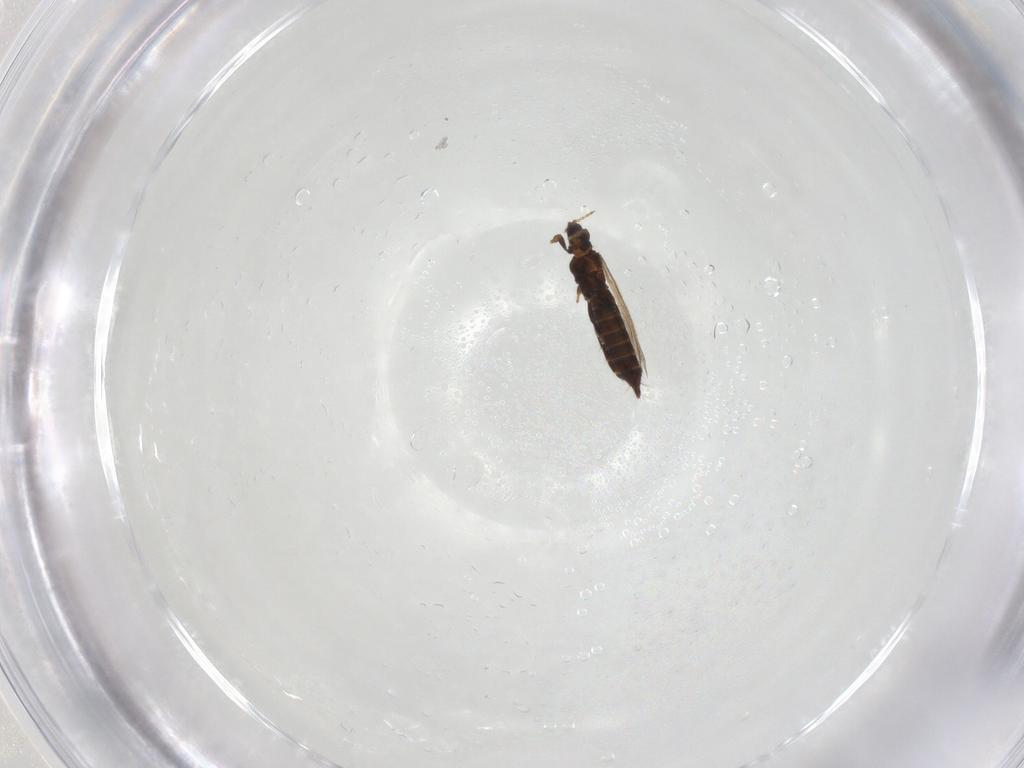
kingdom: Animalia
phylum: Arthropoda
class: Insecta
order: Thysanoptera
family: Thripidae
